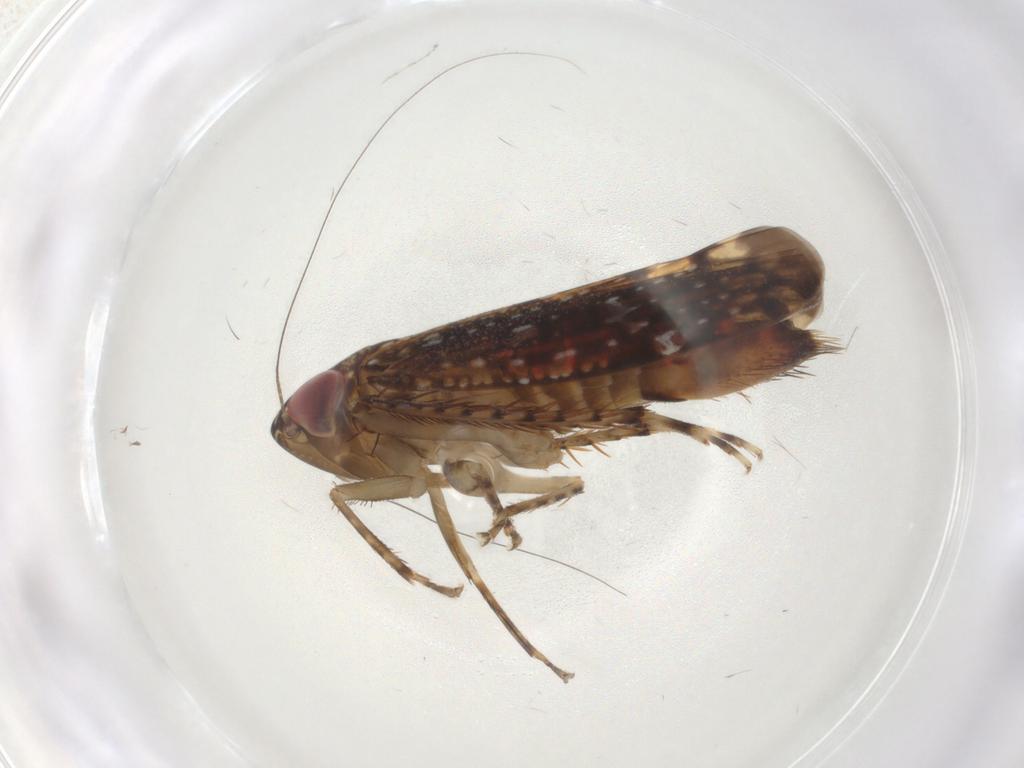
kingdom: Animalia
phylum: Arthropoda
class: Insecta
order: Hemiptera
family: Cicadellidae
